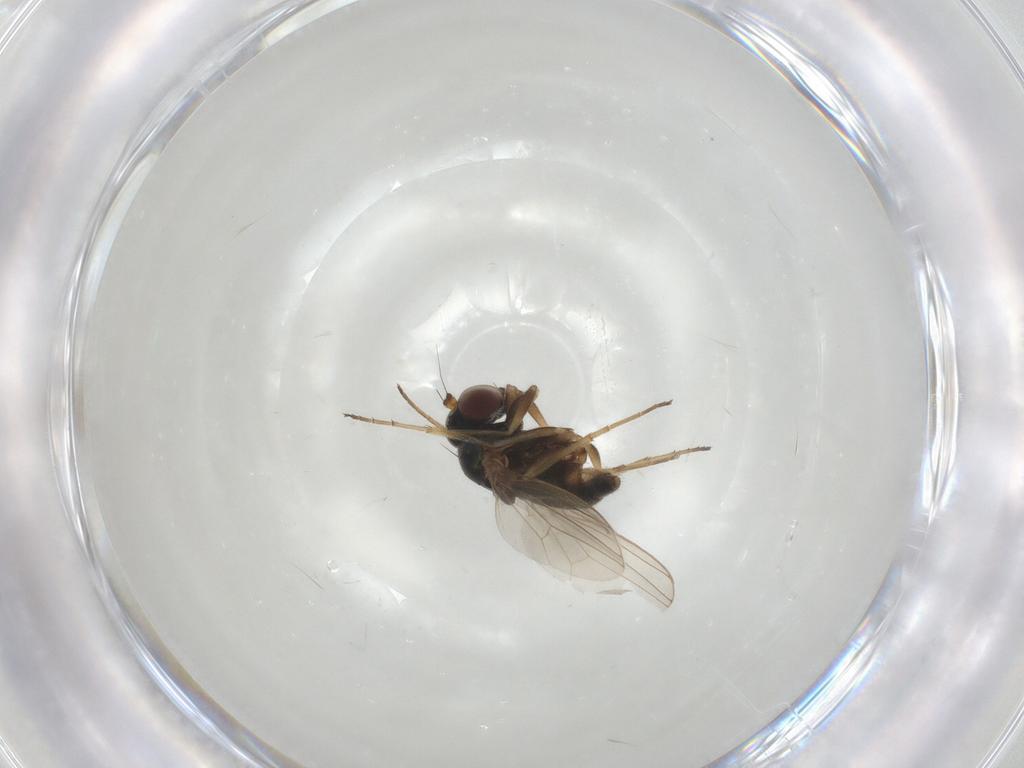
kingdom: Animalia
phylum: Arthropoda
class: Insecta
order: Diptera
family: Dolichopodidae
